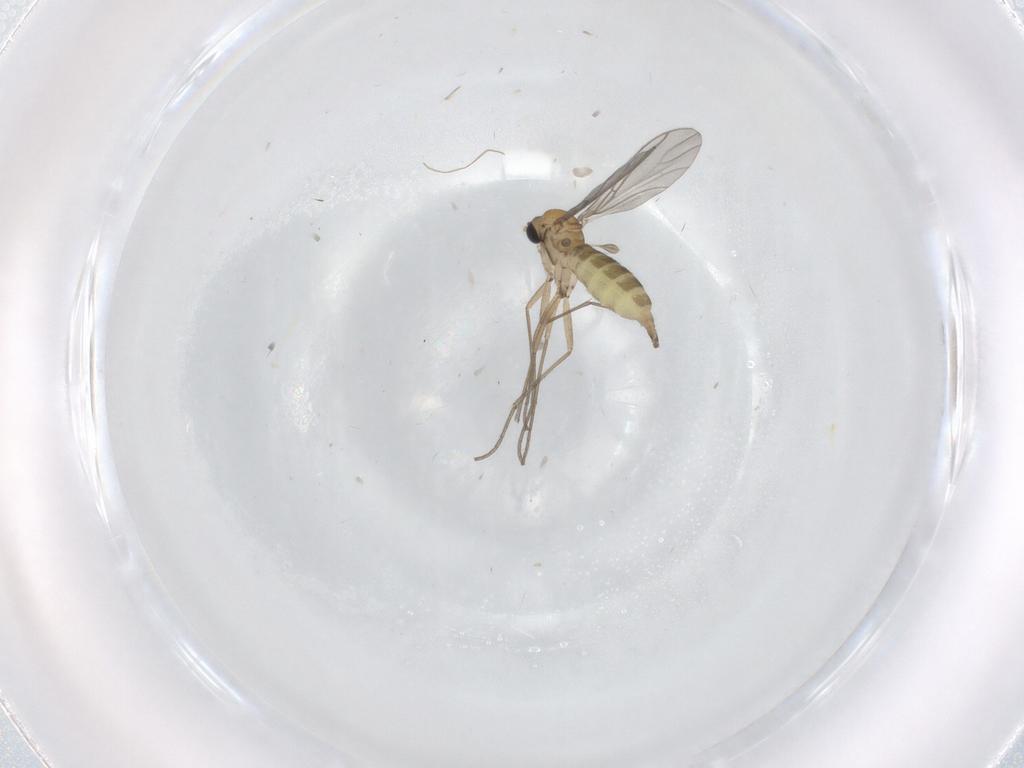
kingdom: Animalia
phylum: Arthropoda
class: Insecta
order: Diptera
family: Sciaridae
